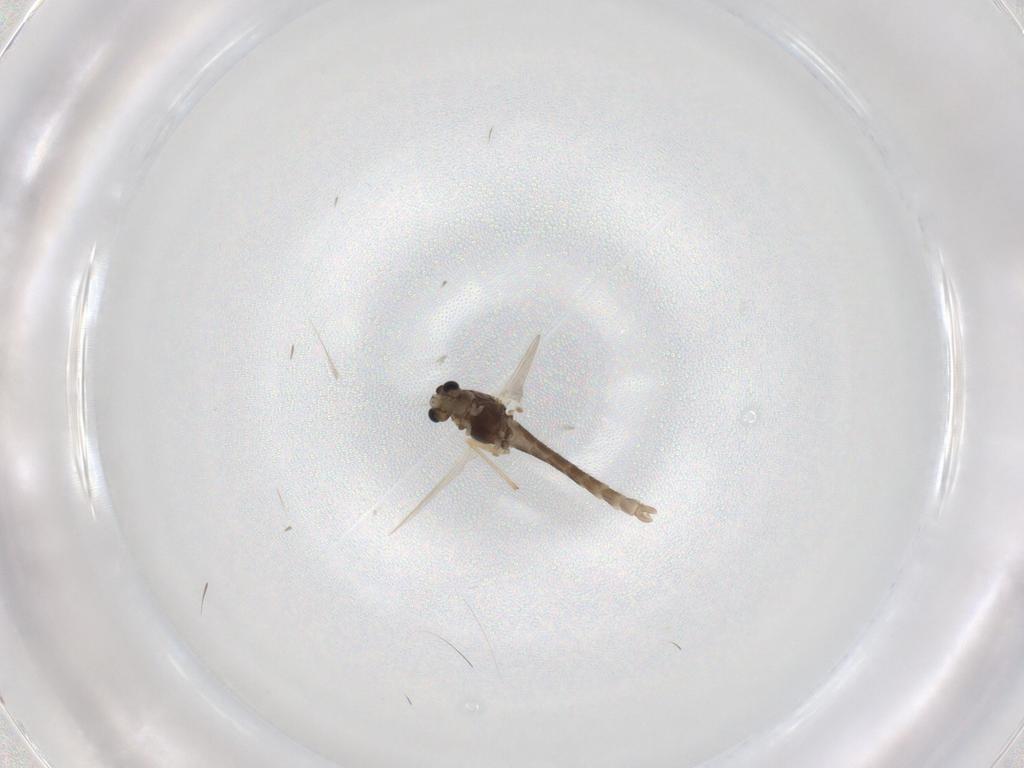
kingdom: Animalia
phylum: Arthropoda
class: Insecta
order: Diptera
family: Chironomidae
